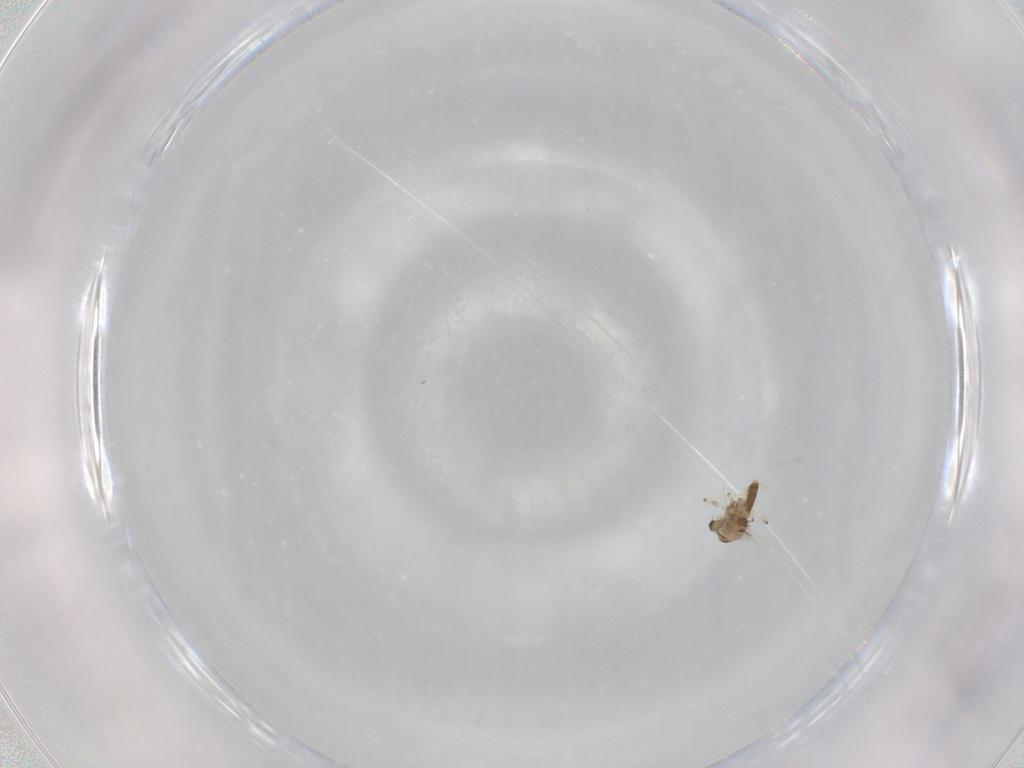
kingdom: Animalia
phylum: Arthropoda
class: Insecta
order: Diptera
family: Chironomidae
